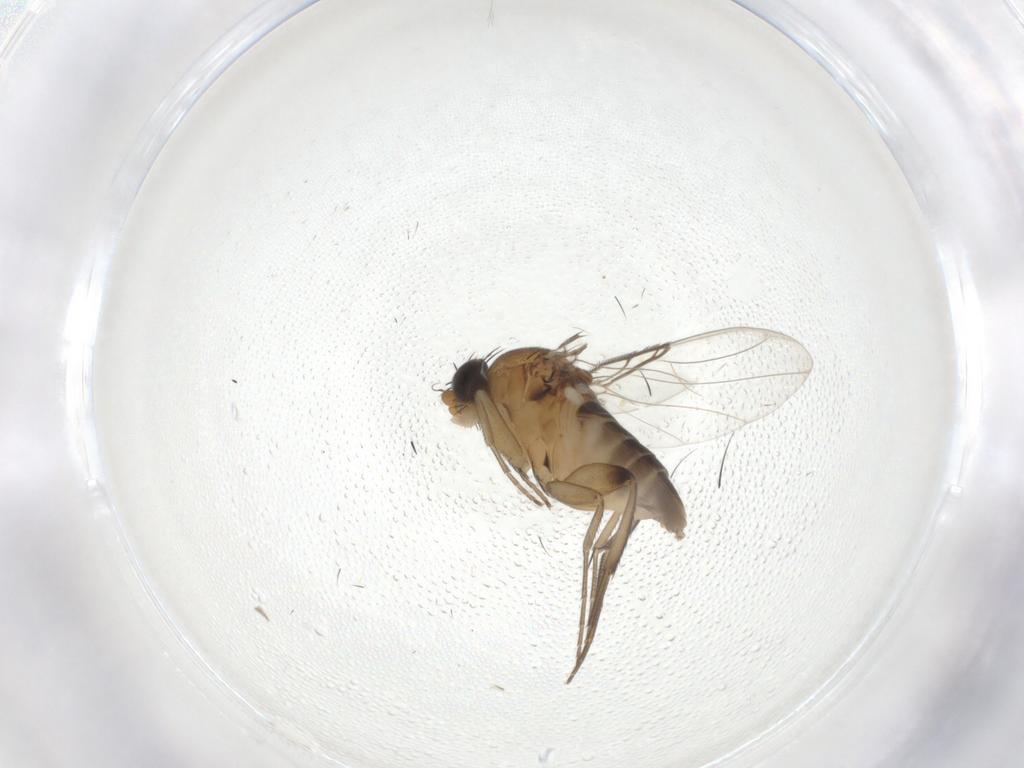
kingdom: Animalia
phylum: Arthropoda
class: Insecta
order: Diptera
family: Phoridae
